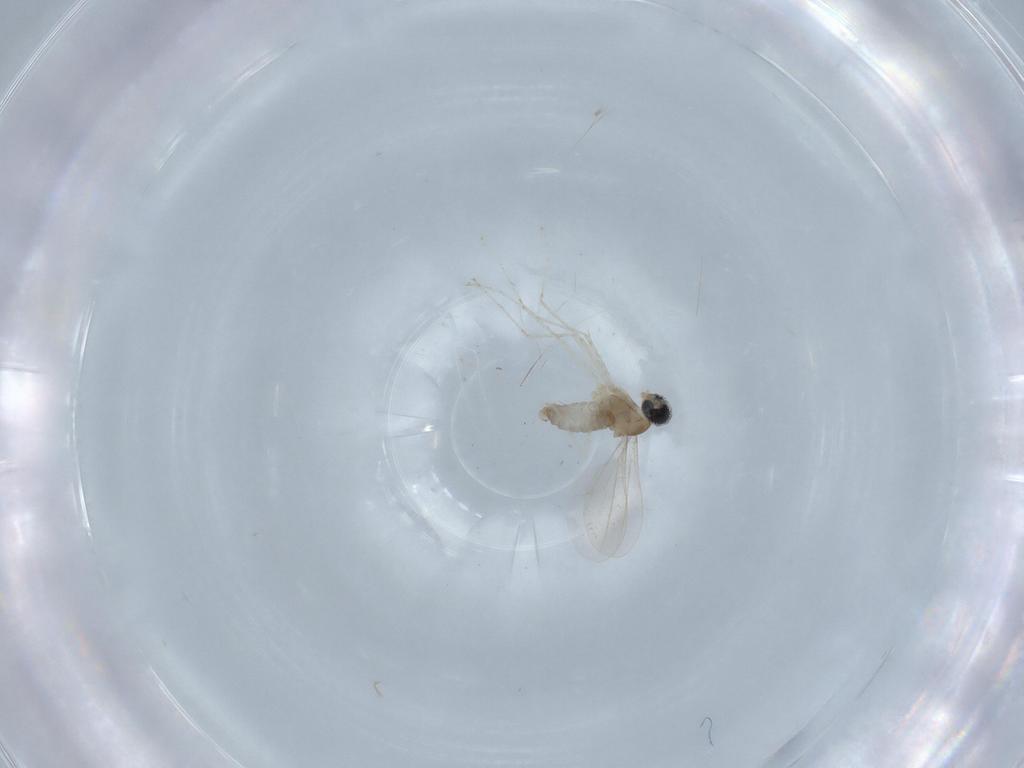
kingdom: Animalia
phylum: Arthropoda
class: Insecta
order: Diptera
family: Cecidomyiidae
